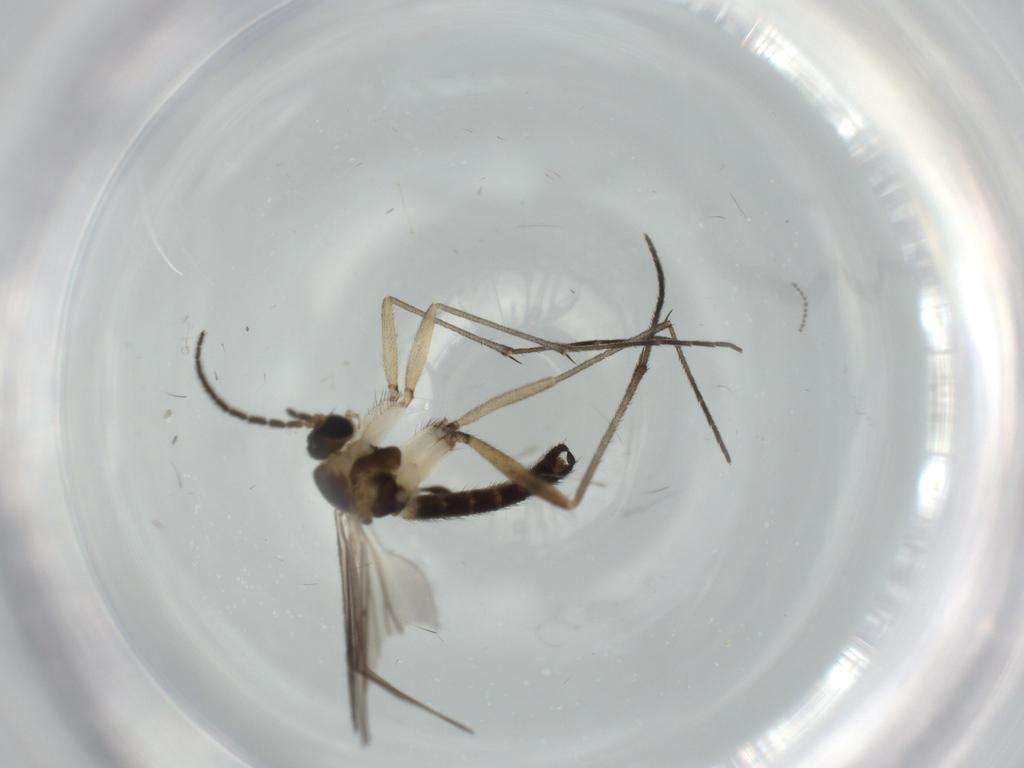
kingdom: Animalia
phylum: Arthropoda
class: Insecta
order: Diptera
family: Sciaridae
